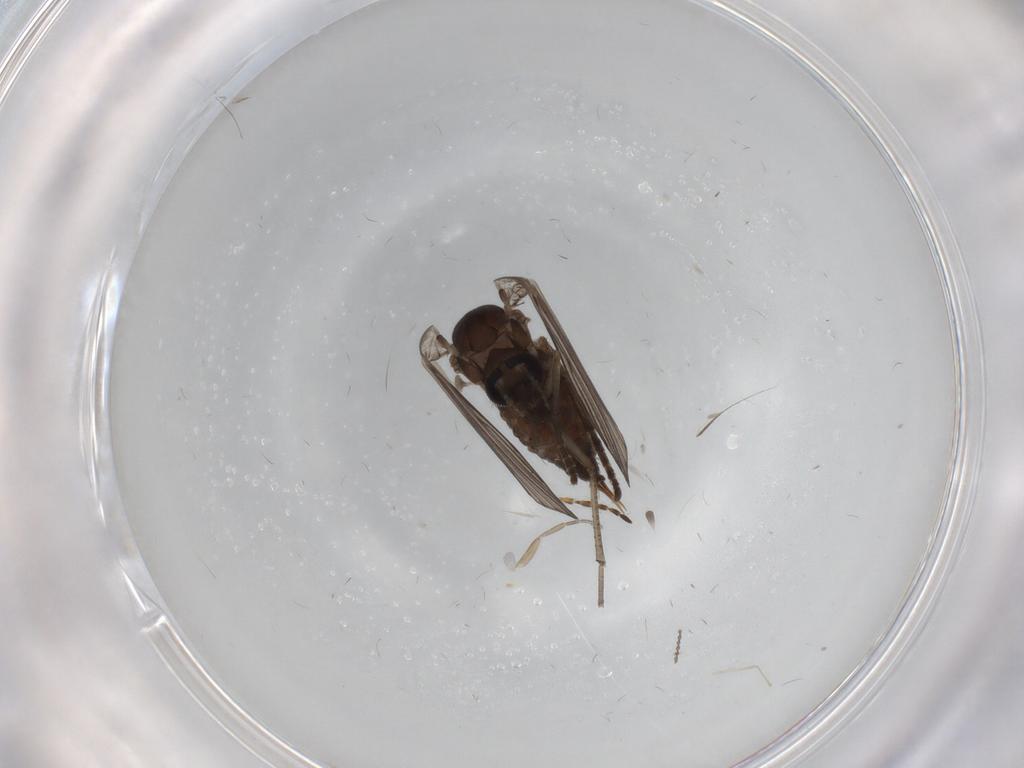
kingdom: Animalia
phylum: Arthropoda
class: Insecta
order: Diptera
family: Psychodidae
